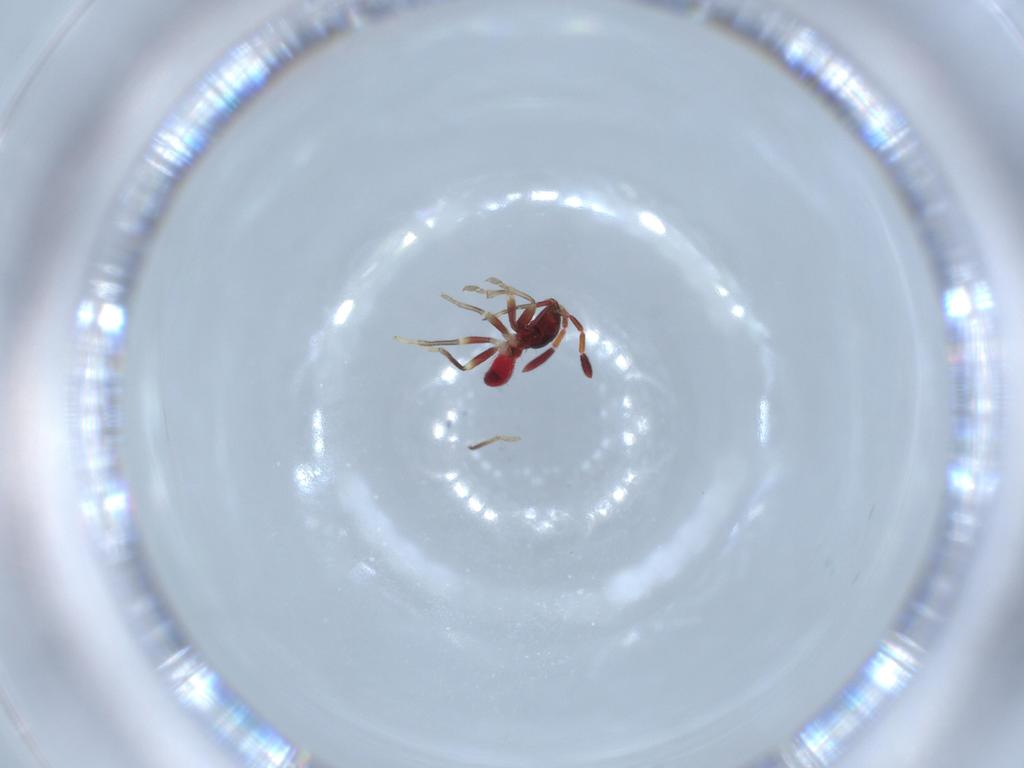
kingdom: Animalia
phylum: Arthropoda
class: Insecta
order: Hemiptera
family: Rhyparochromidae
